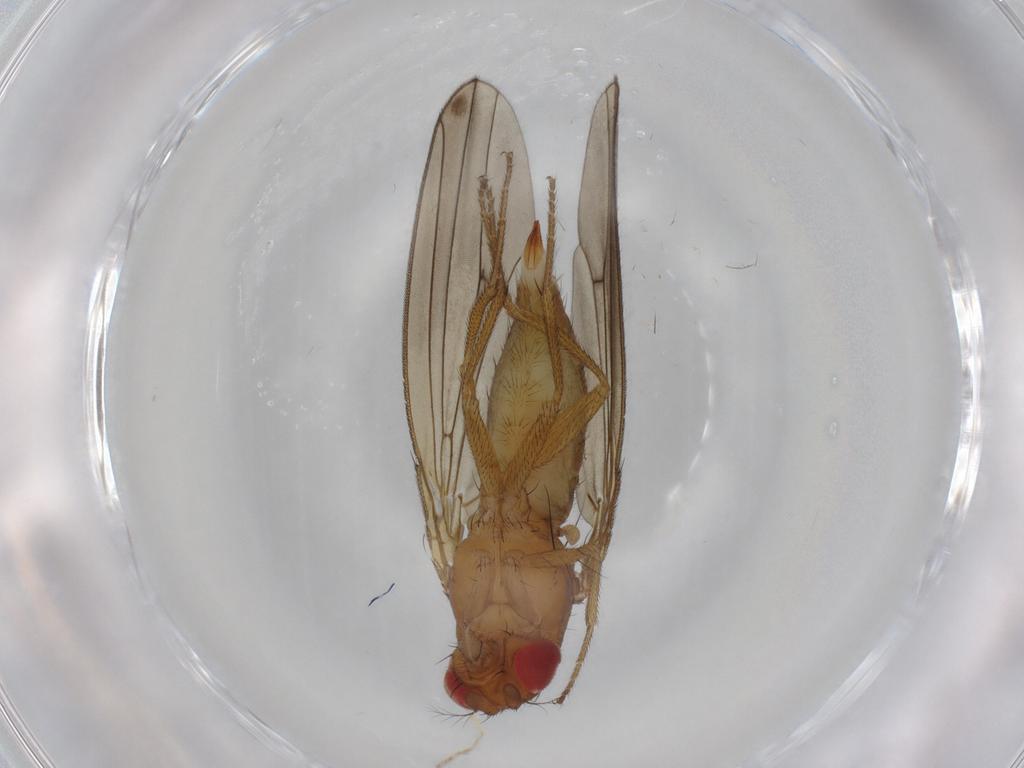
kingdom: Animalia
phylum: Arthropoda
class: Insecta
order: Diptera
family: Drosophilidae
